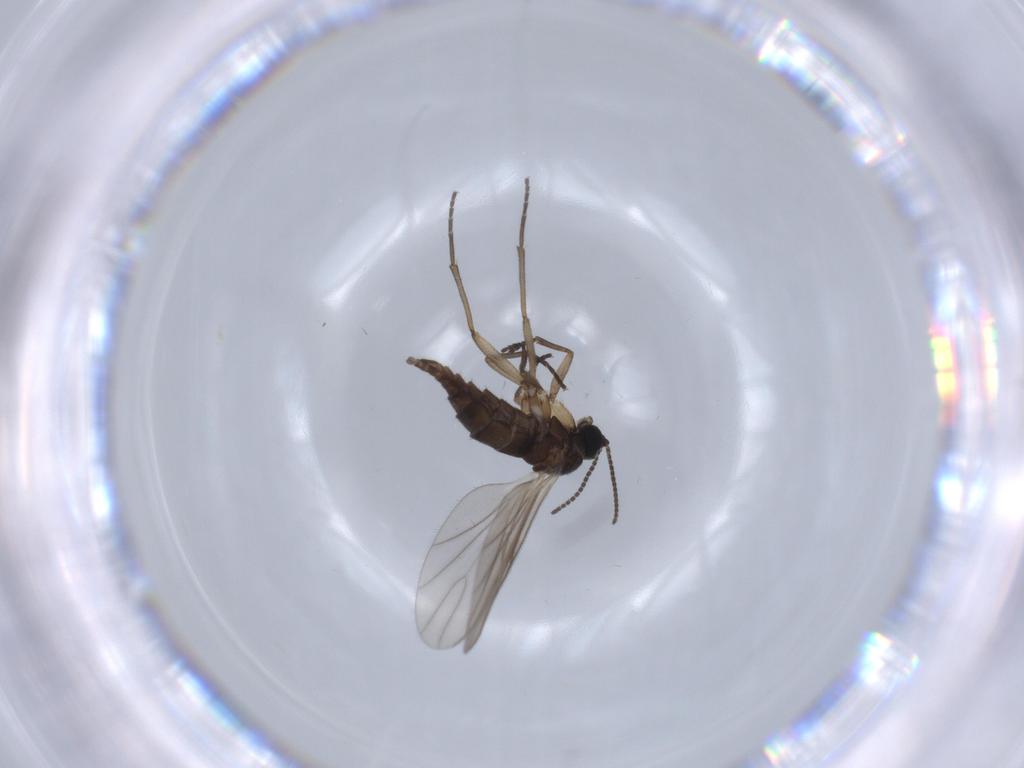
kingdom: Animalia
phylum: Arthropoda
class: Insecta
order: Diptera
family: Sciaridae
